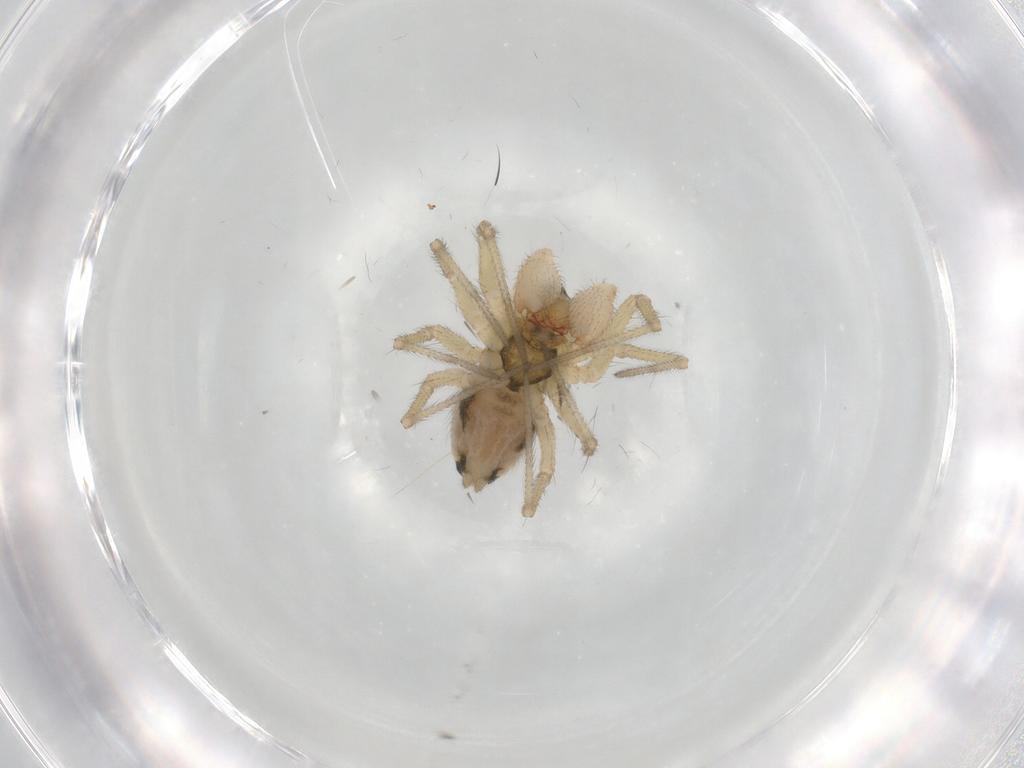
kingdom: Animalia
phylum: Arthropoda
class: Arachnida
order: Araneae
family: Linyphiidae
